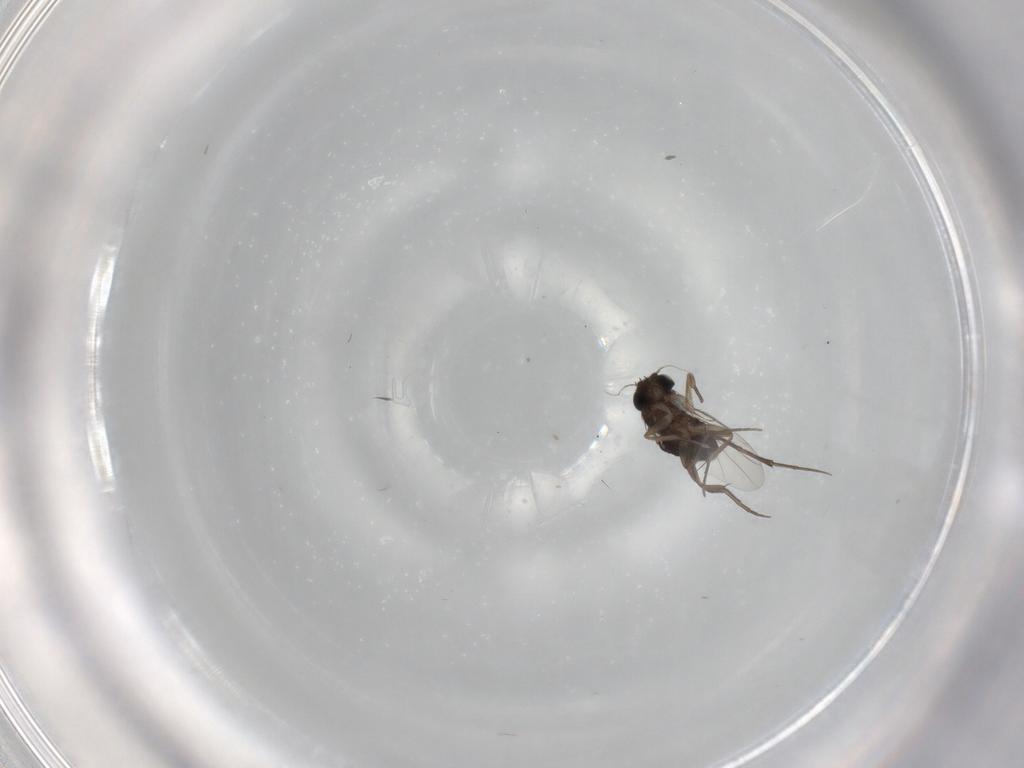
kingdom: Animalia
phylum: Arthropoda
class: Insecta
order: Diptera
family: Phoridae
